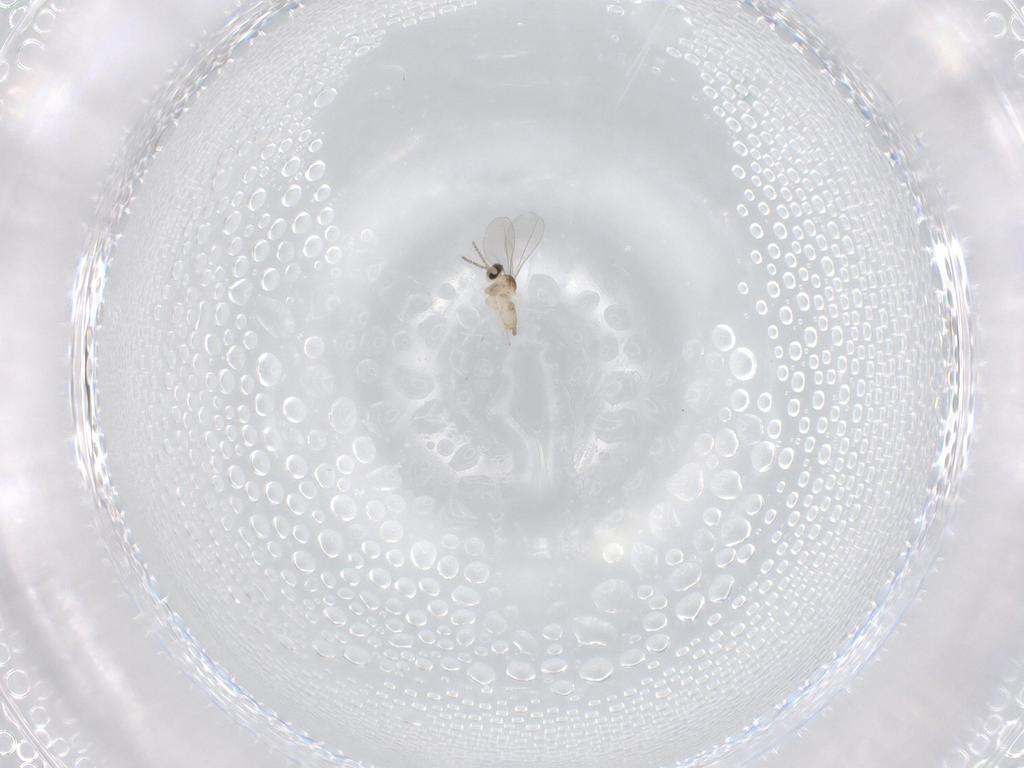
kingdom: Animalia
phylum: Arthropoda
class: Insecta
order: Diptera
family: Cecidomyiidae
